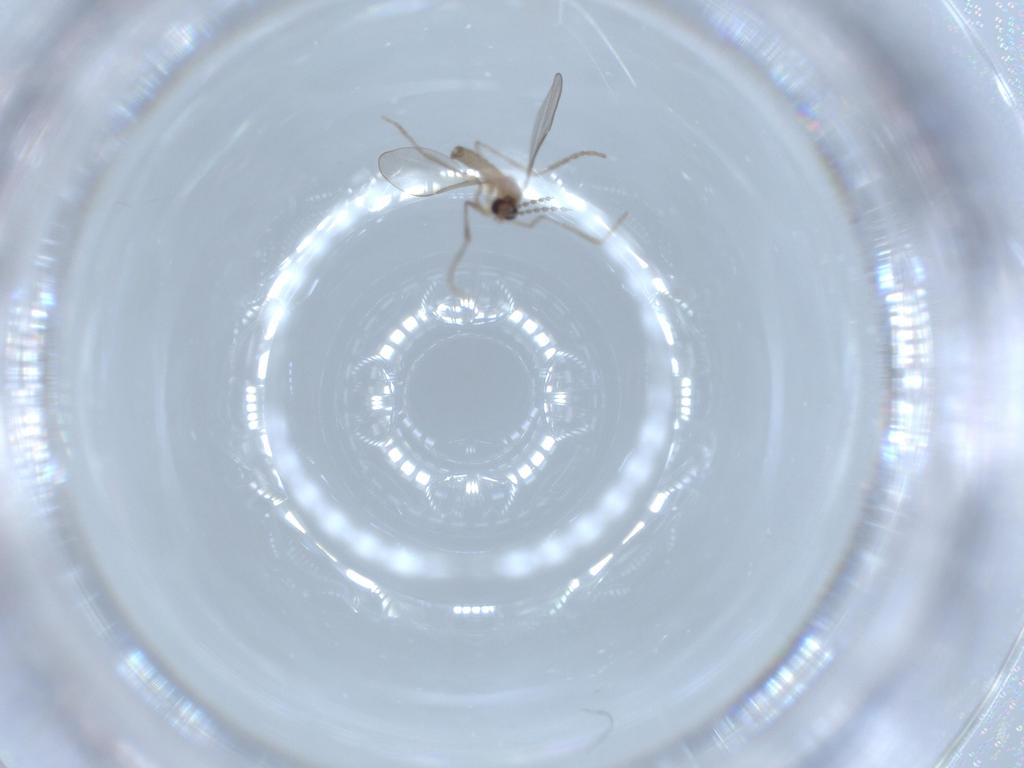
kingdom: Animalia
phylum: Arthropoda
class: Insecta
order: Diptera
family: Cecidomyiidae
